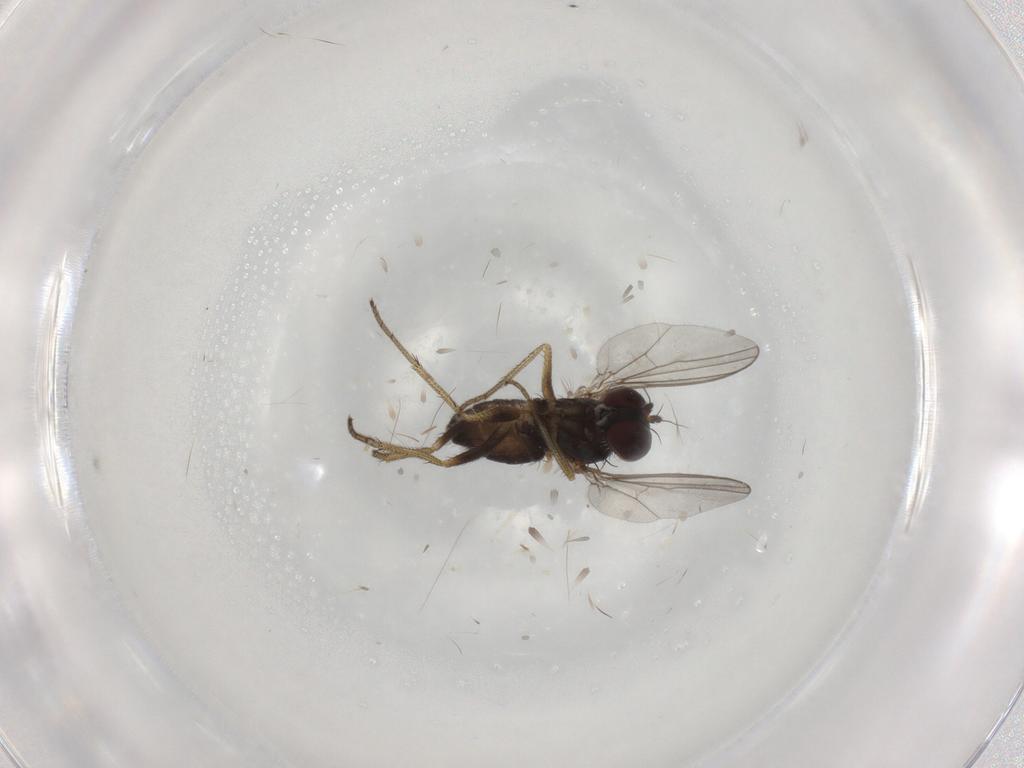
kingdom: Animalia
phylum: Arthropoda
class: Insecta
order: Diptera
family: Dolichopodidae
